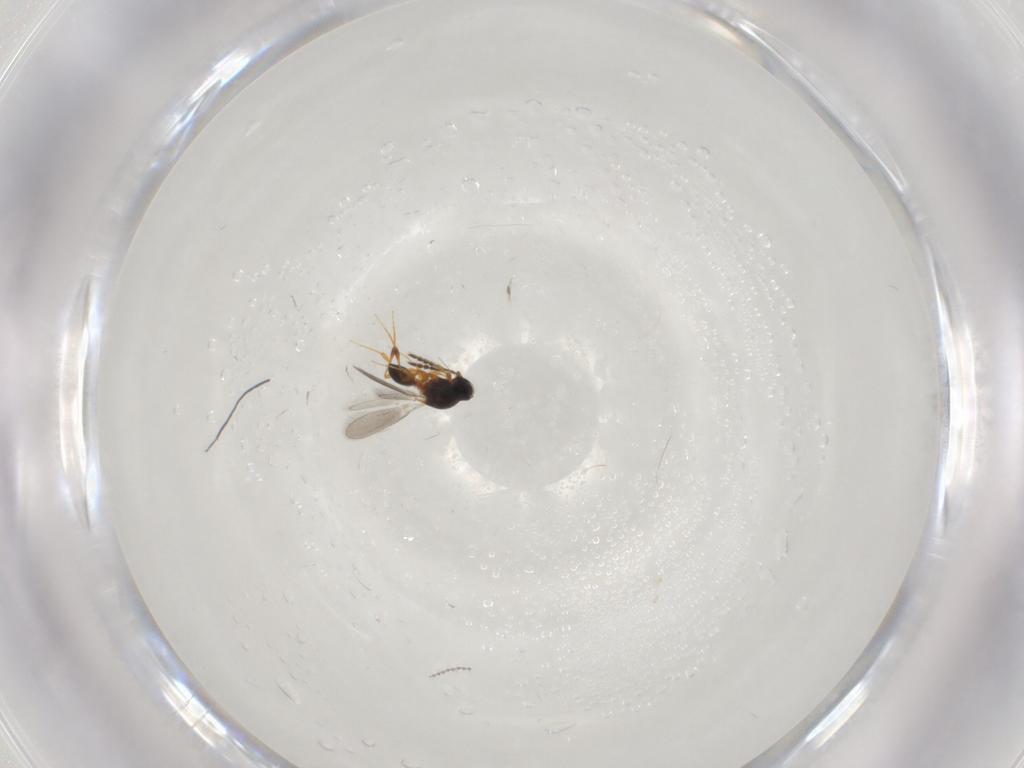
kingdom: Animalia
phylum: Arthropoda
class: Insecta
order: Hymenoptera
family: Platygastridae
